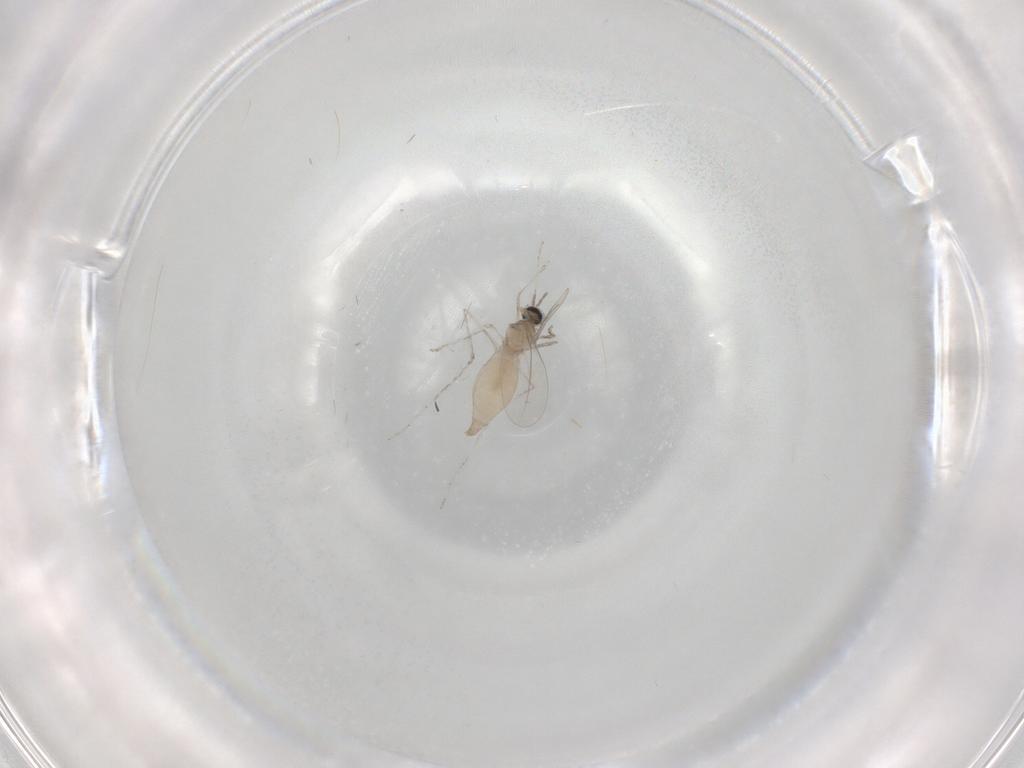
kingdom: Animalia
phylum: Arthropoda
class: Insecta
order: Diptera
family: Cecidomyiidae
